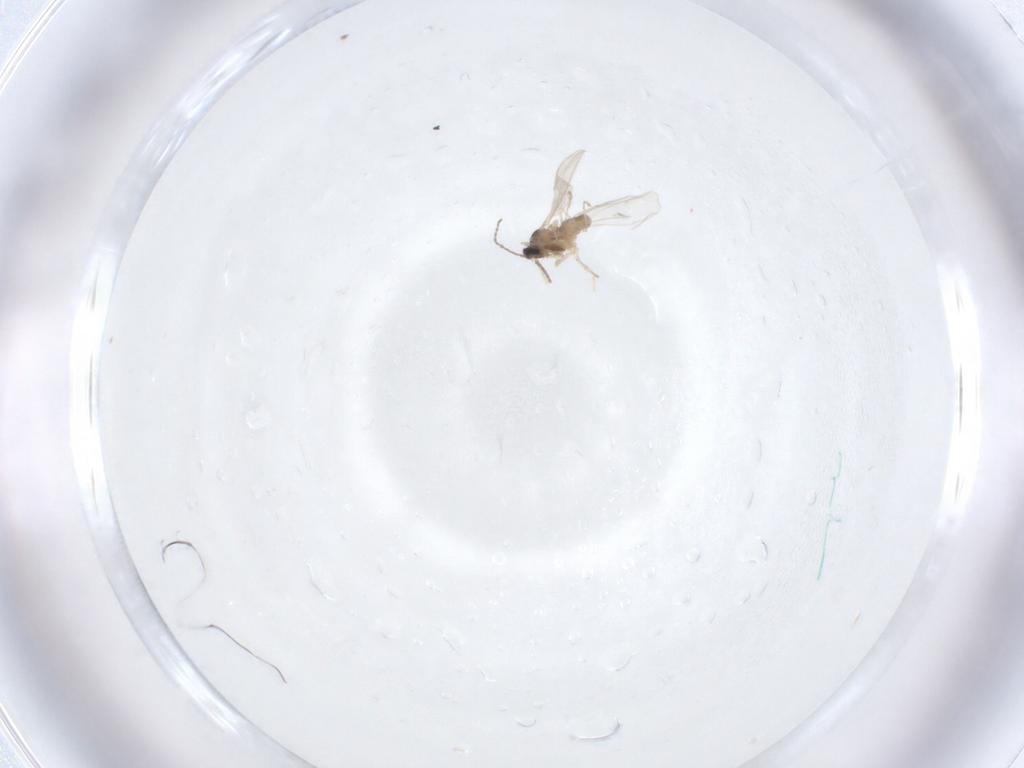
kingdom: Animalia
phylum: Arthropoda
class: Insecta
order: Diptera
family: Cecidomyiidae
